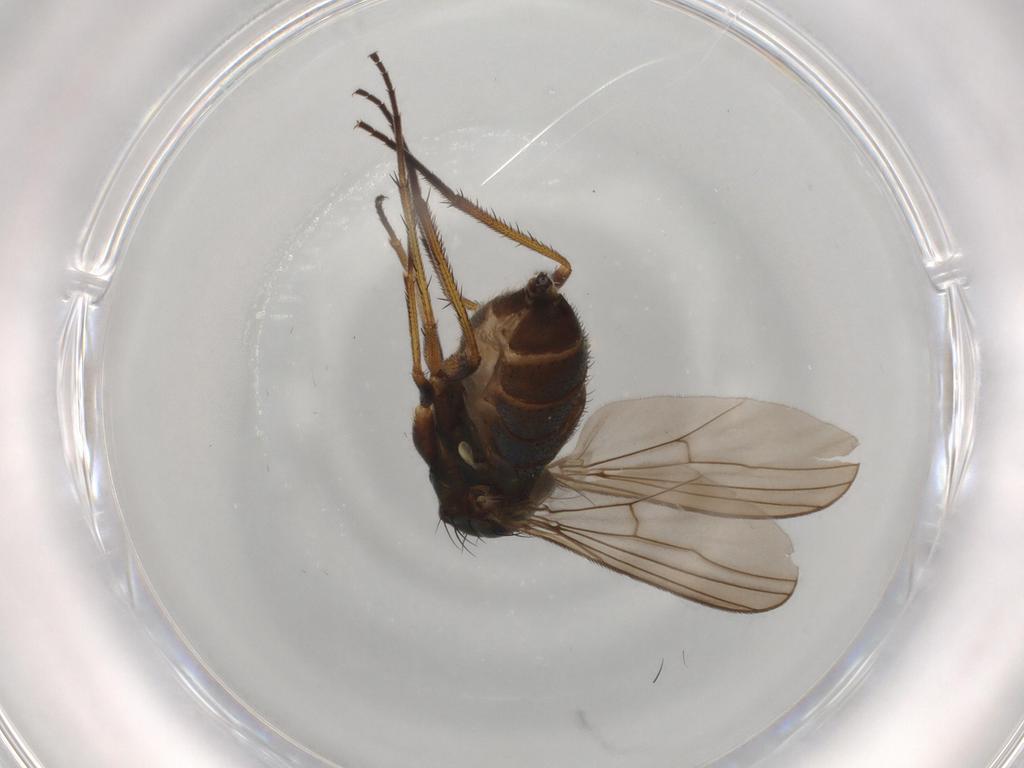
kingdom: Animalia
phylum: Arthropoda
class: Insecta
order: Diptera
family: Dolichopodidae
